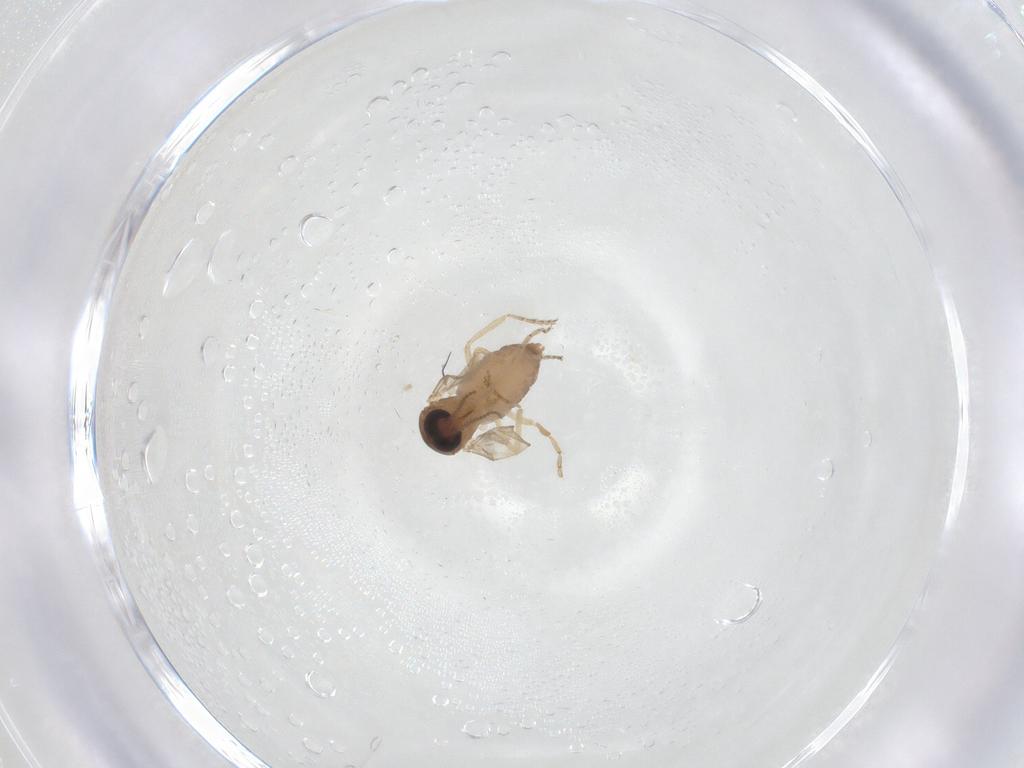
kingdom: Animalia
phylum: Arthropoda
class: Insecta
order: Diptera
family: Ceratopogonidae
